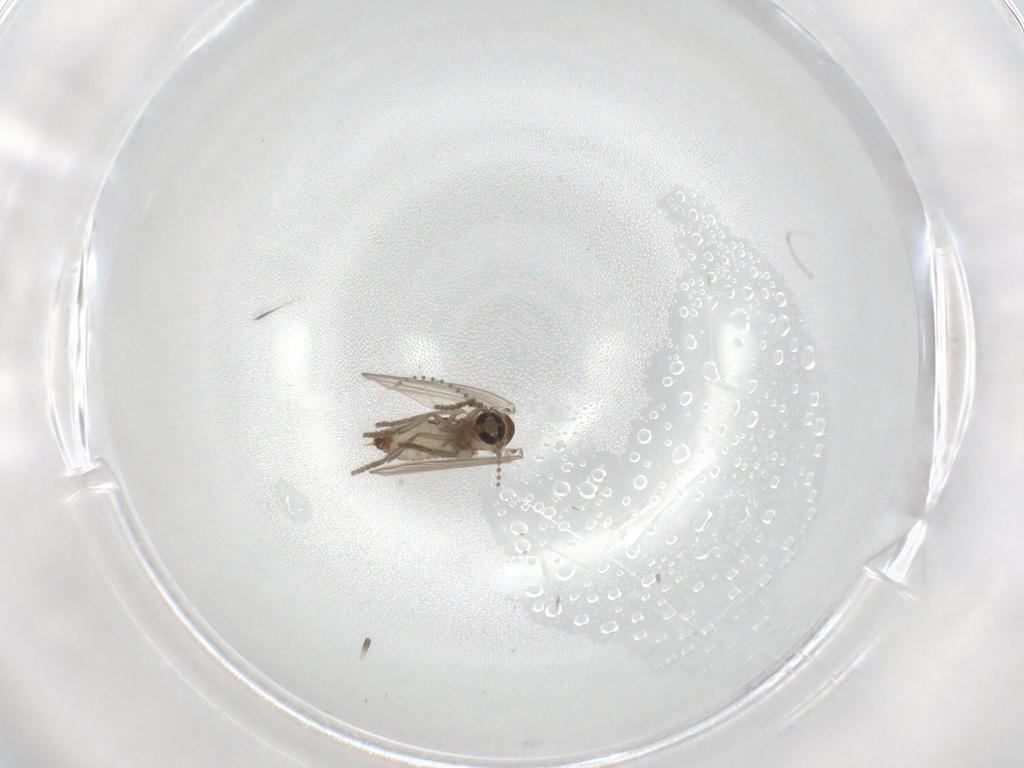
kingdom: Animalia
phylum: Arthropoda
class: Insecta
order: Diptera
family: Psychodidae
